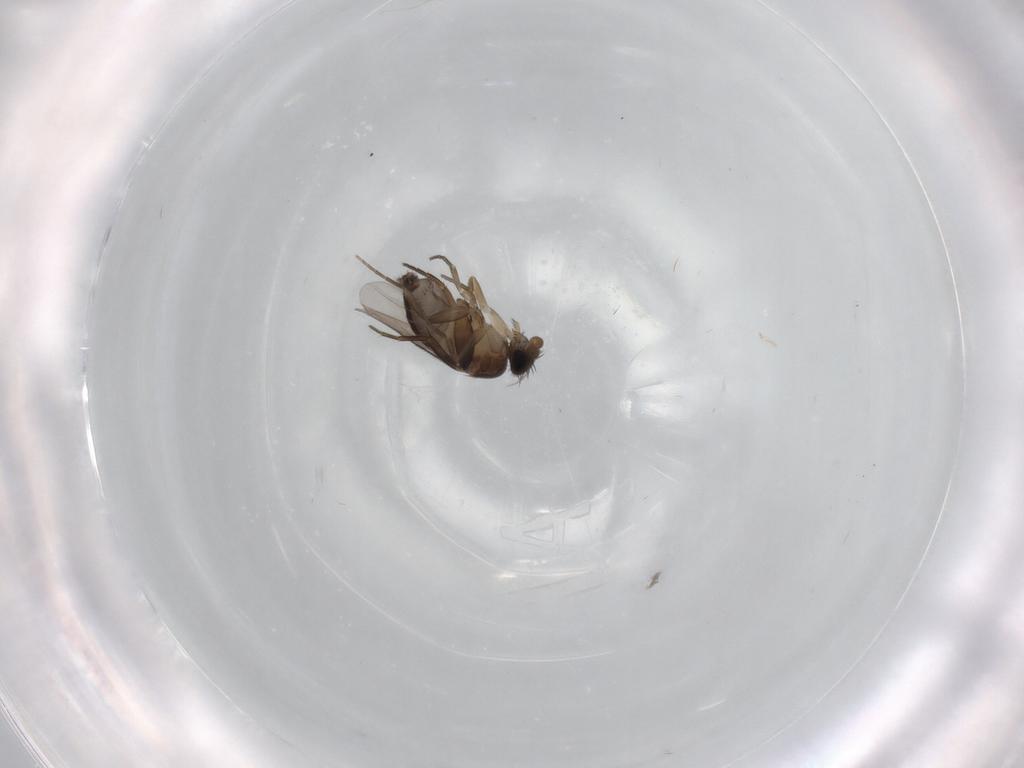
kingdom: Animalia
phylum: Arthropoda
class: Insecta
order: Diptera
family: Phoridae
